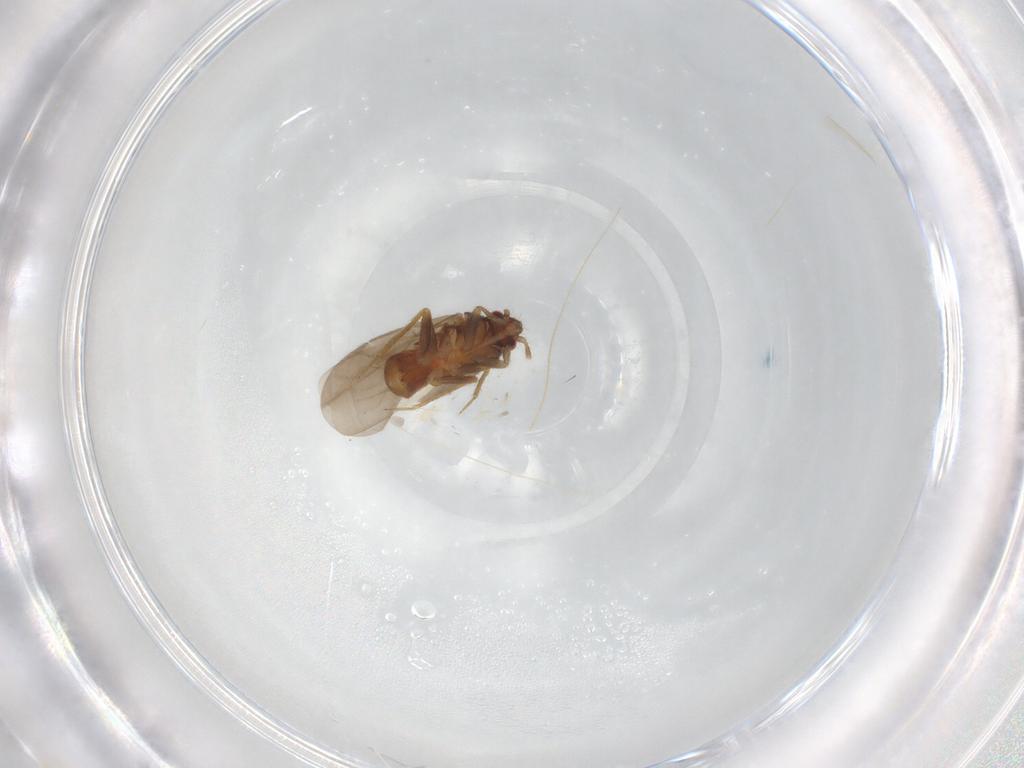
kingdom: Animalia
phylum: Arthropoda
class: Insecta
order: Hemiptera
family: Ceratocombidae
